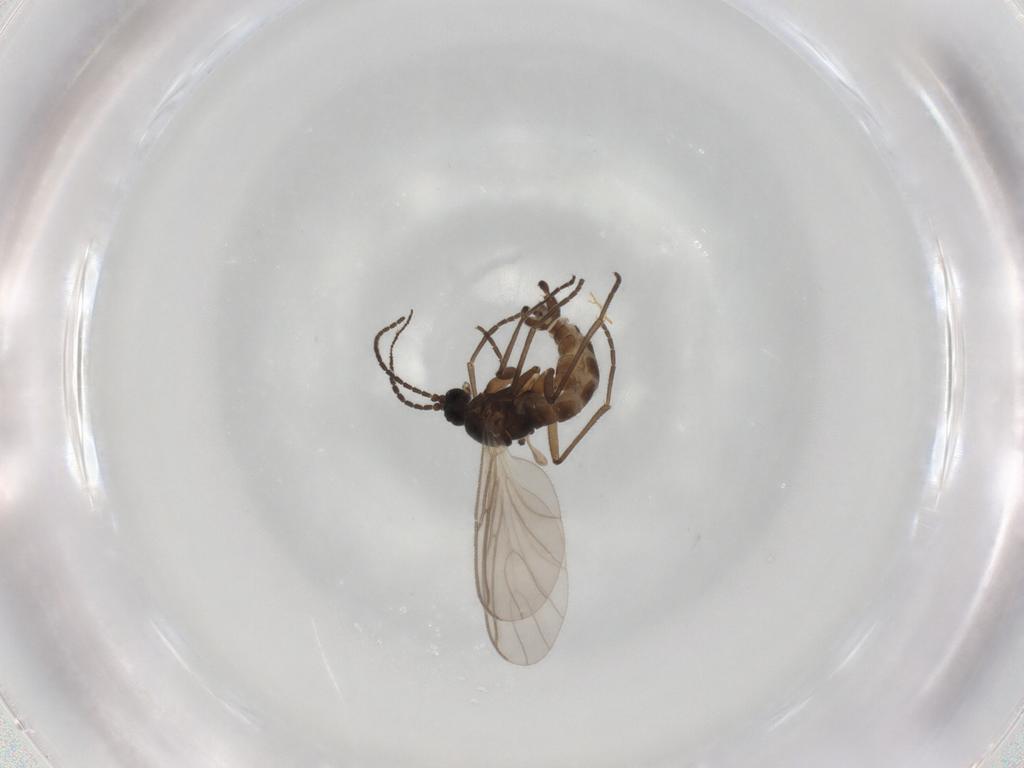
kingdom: Animalia
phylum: Arthropoda
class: Insecta
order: Diptera
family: Sciaridae
